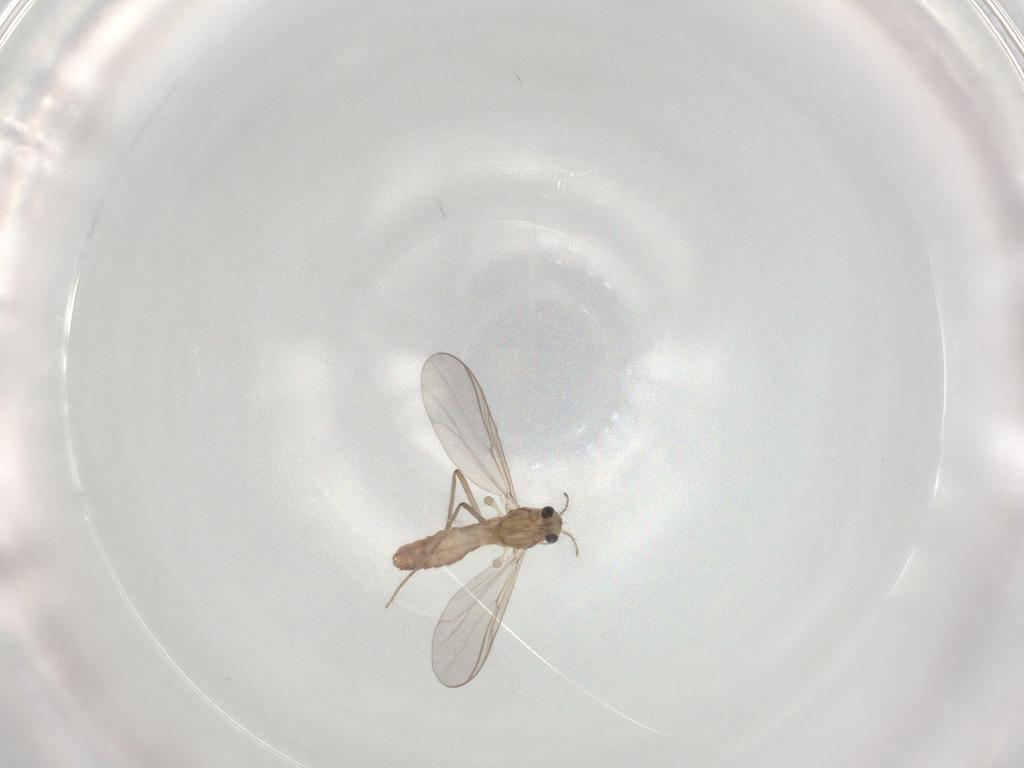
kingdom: Animalia
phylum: Arthropoda
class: Insecta
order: Diptera
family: Chironomidae
